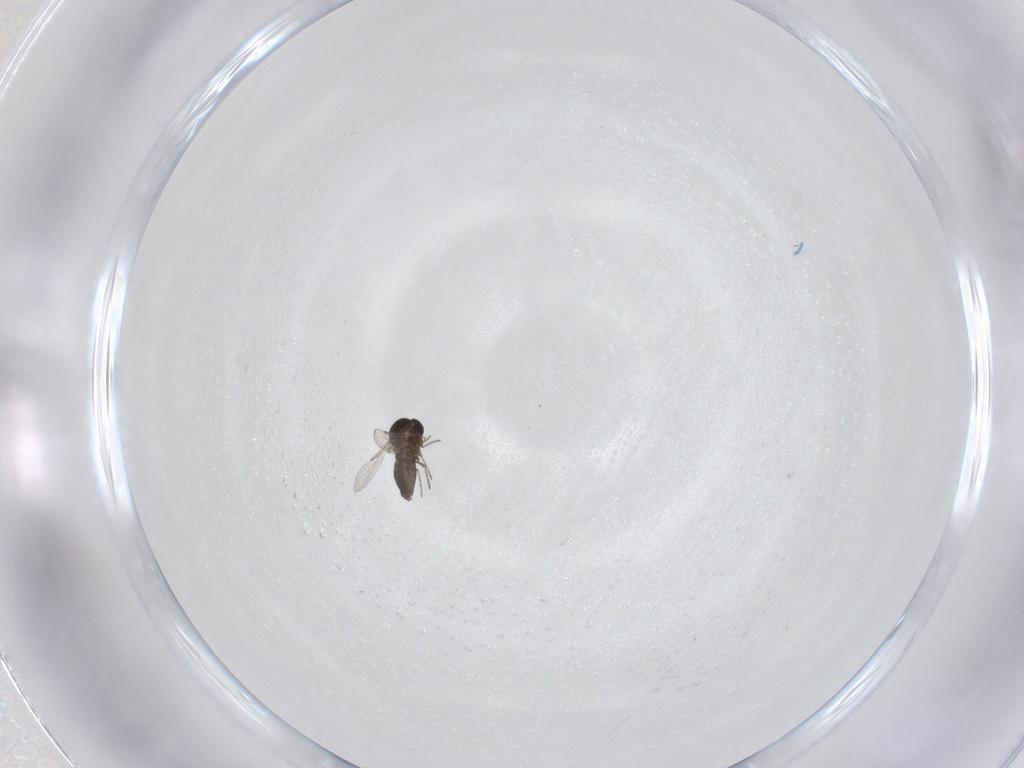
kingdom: Animalia
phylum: Arthropoda
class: Insecta
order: Diptera
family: Ceratopogonidae
